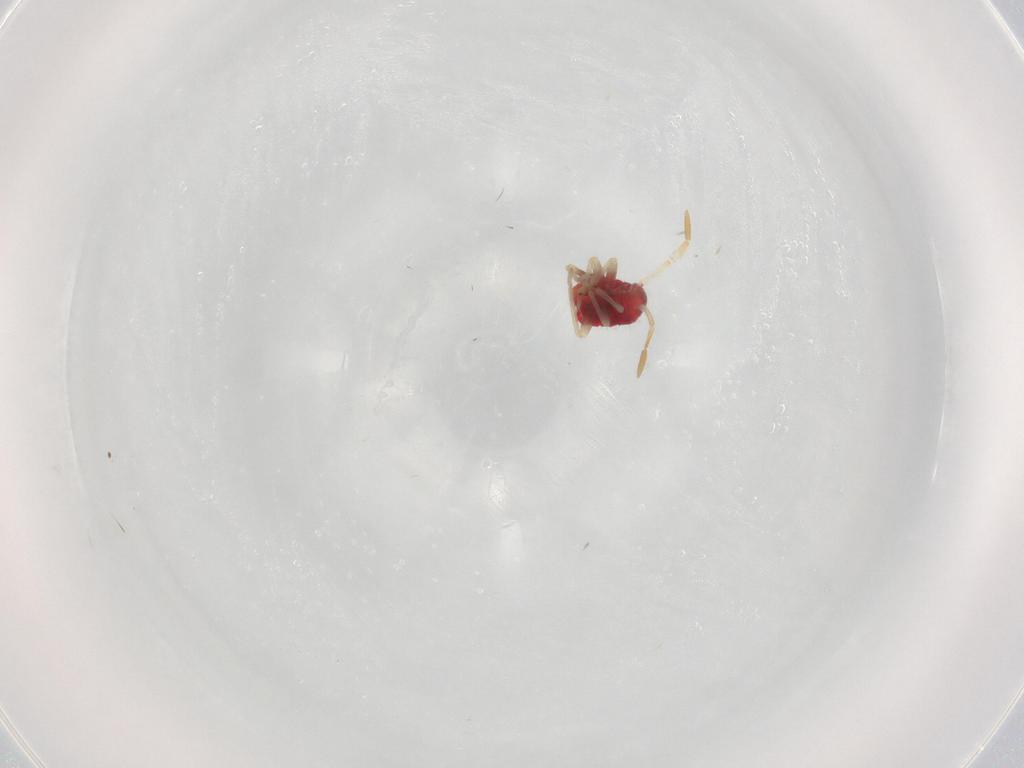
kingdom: Animalia
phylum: Arthropoda
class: Insecta
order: Hemiptera
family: Miridae
